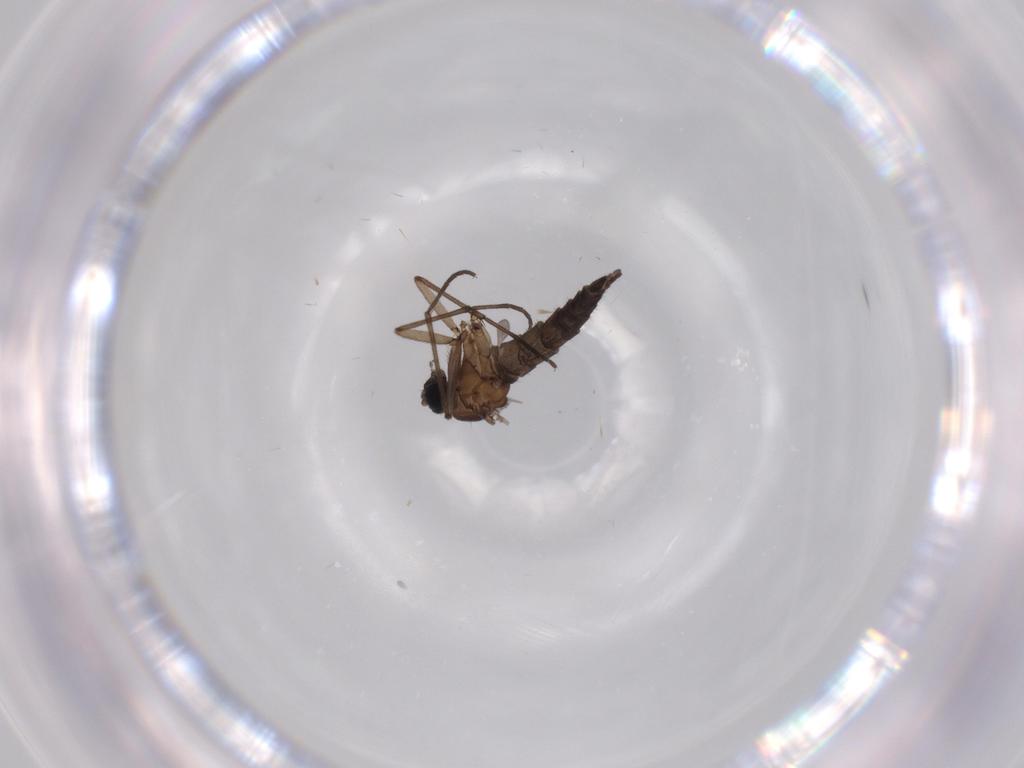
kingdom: Animalia
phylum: Arthropoda
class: Insecta
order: Diptera
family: Sciaridae
